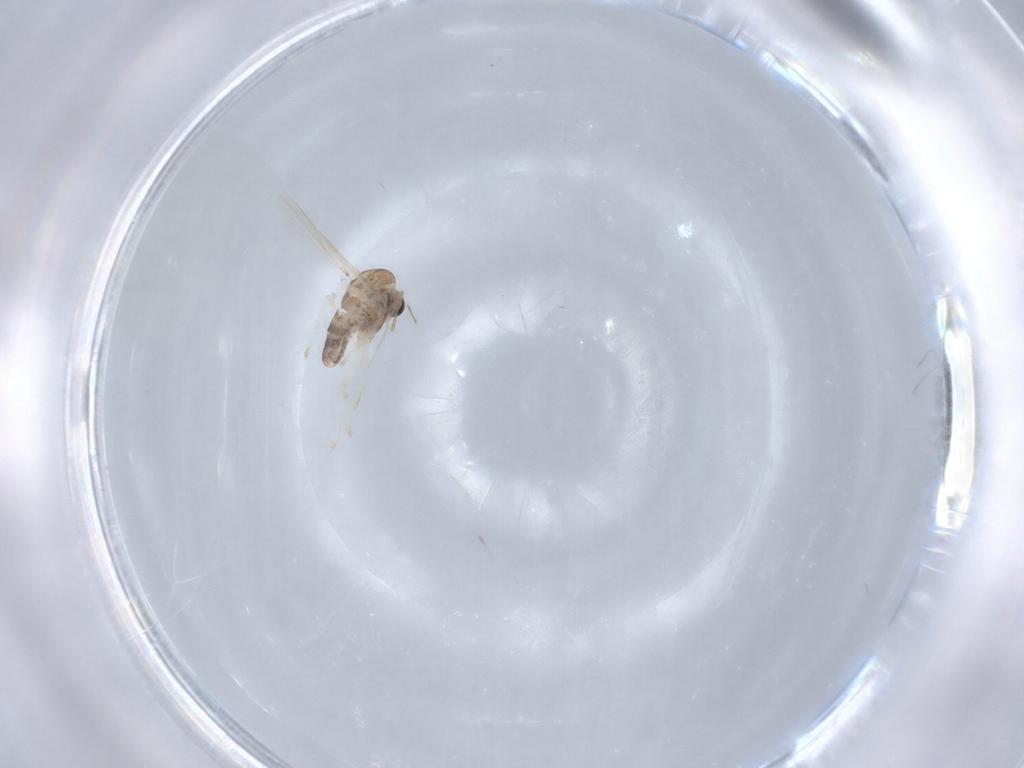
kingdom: Animalia
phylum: Arthropoda
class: Insecta
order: Diptera
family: Chironomidae
